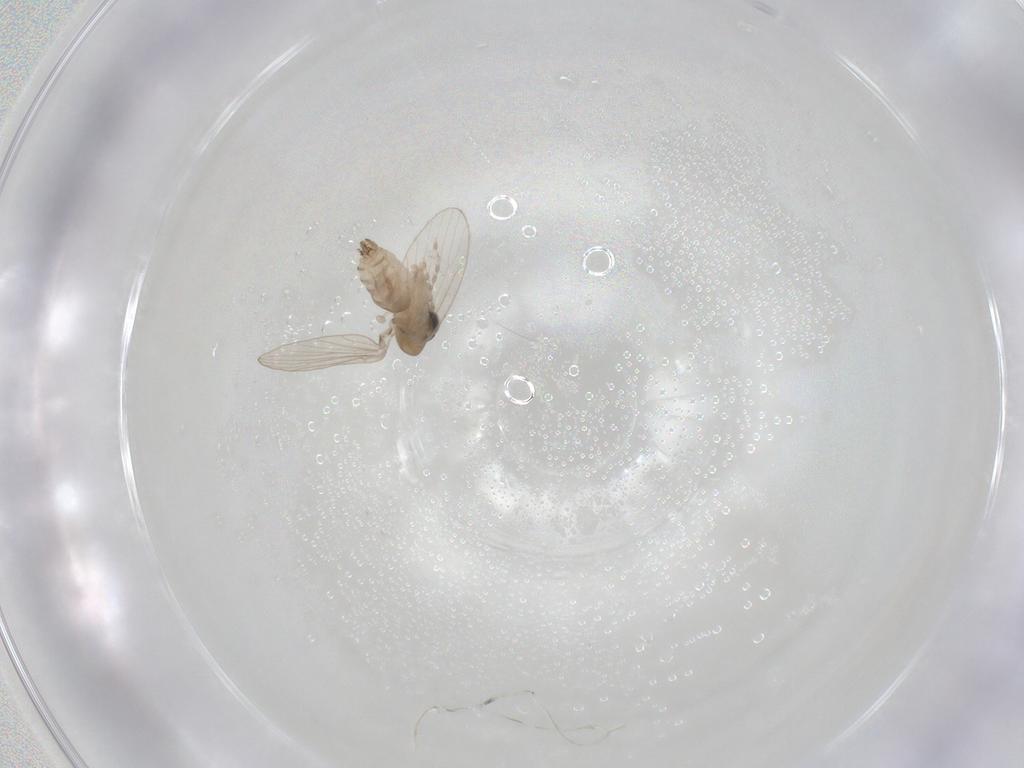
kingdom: Animalia
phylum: Arthropoda
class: Insecta
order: Diptera
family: Psychodidae
